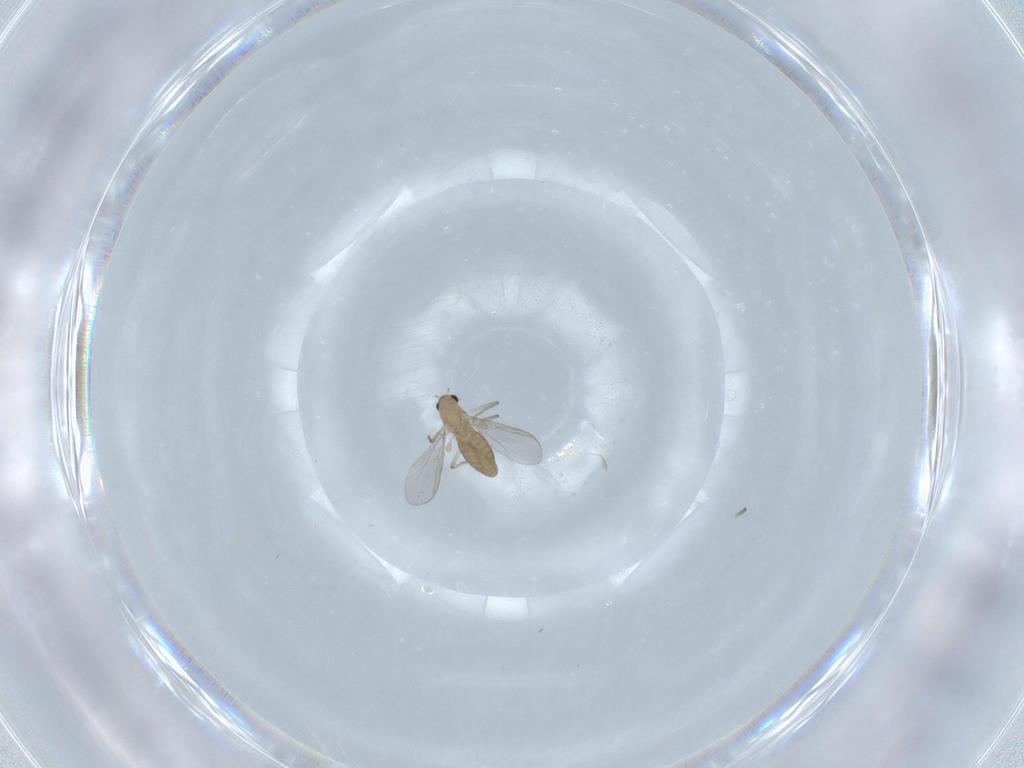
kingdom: Animalia
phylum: Arthropoda
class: Insecta
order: Diptera
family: Chironomidae
